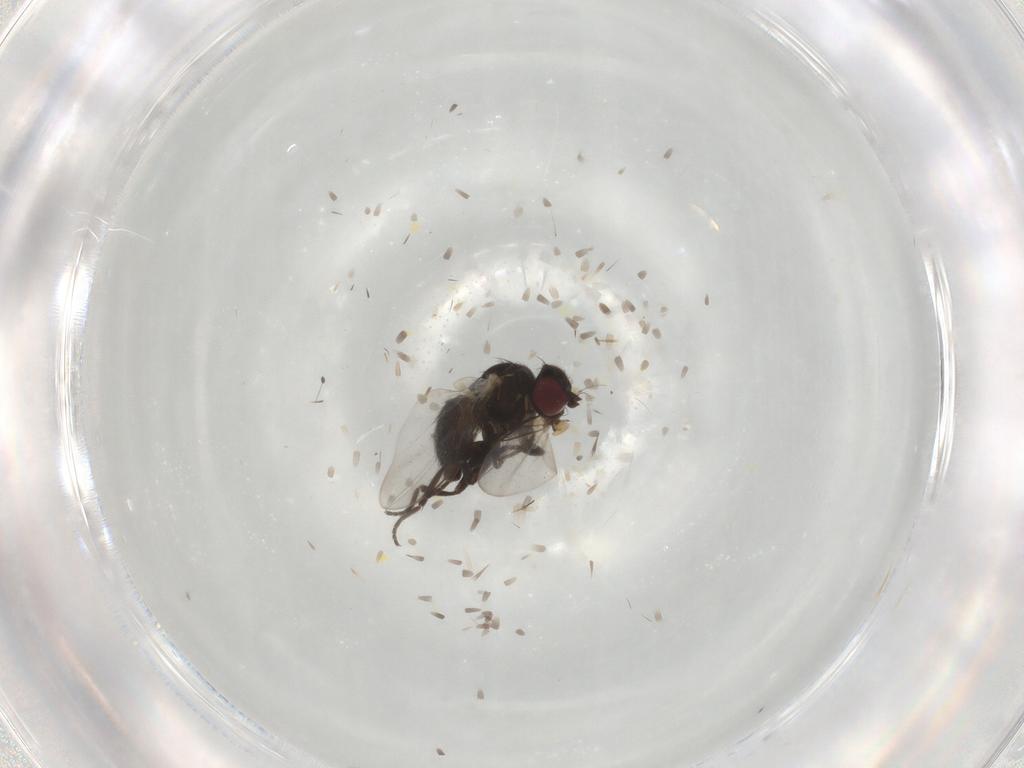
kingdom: Animalia
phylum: Arthropoda
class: Insecta
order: Diptera
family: Agromyzidae
